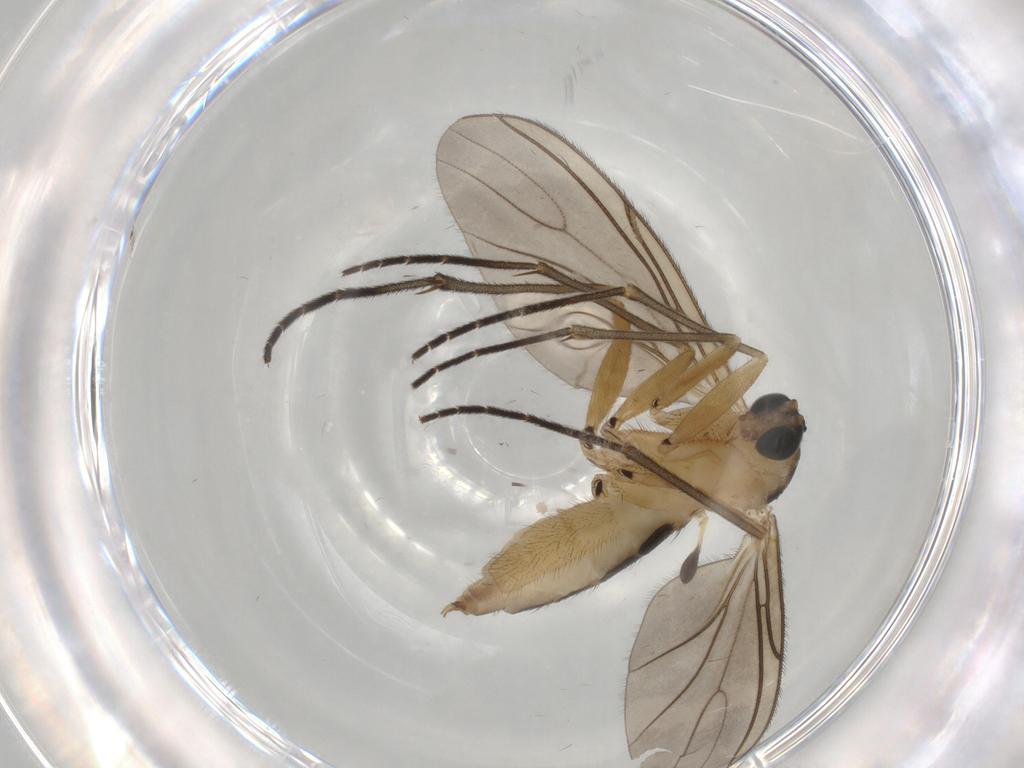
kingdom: Animalia
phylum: Arthropoda
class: Insecta
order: Diptera
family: Sciaridae
